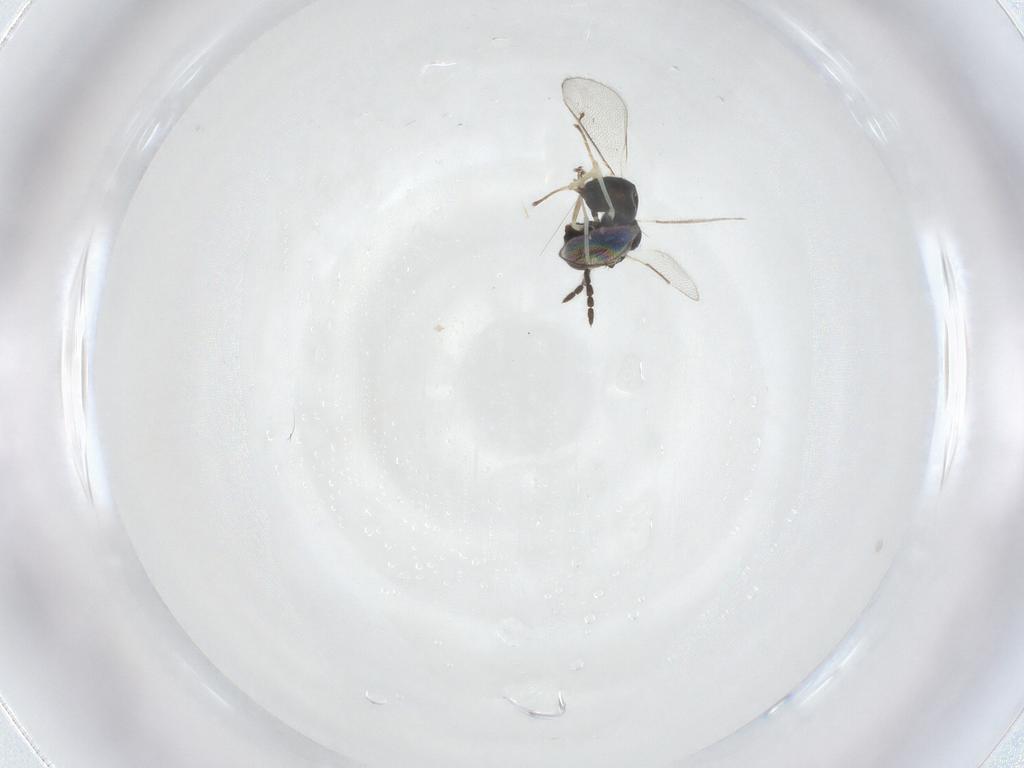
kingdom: Animalia
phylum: Arthropoda
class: Insecta
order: Hymenoptera
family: Eulophidae
